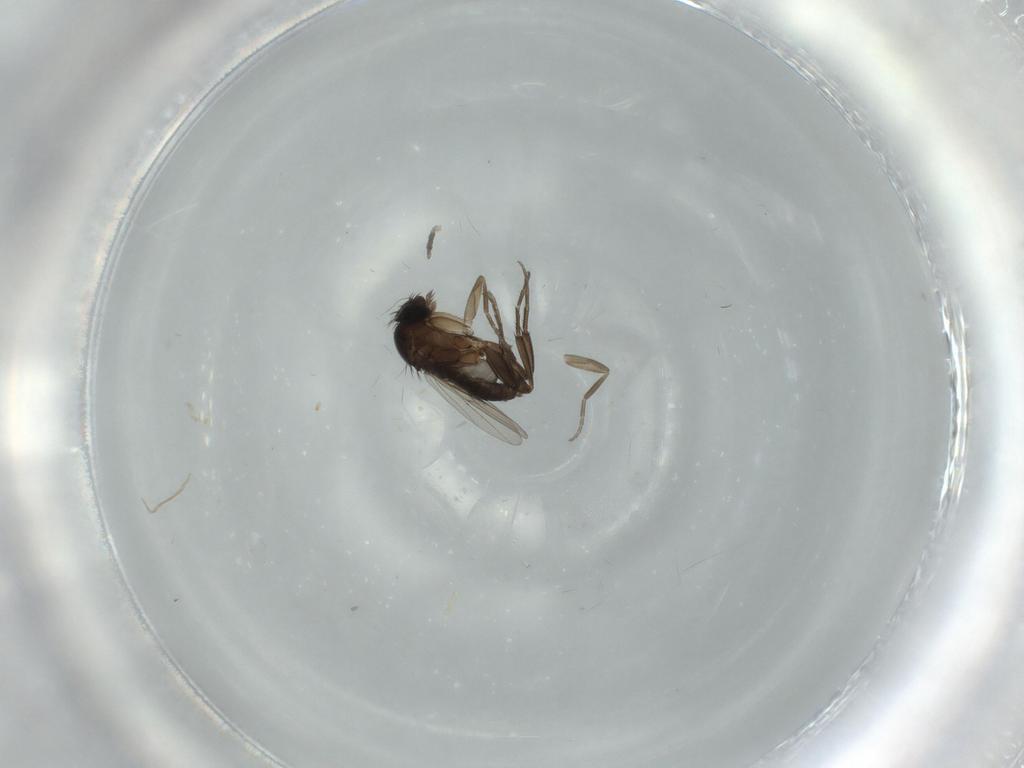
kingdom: Animalia
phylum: Arthropoda
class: Insecta
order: Diptera
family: Phoridae
